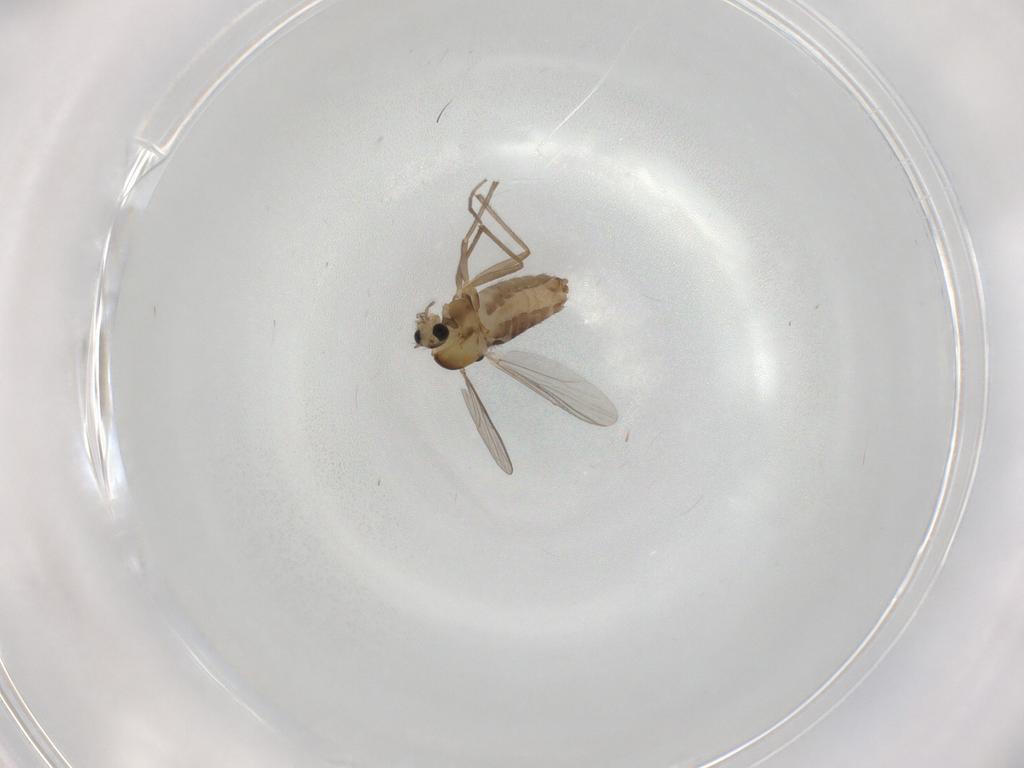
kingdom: Animalia
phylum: Arthropoda
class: Insecta
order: Diptera
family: Chironomidae
